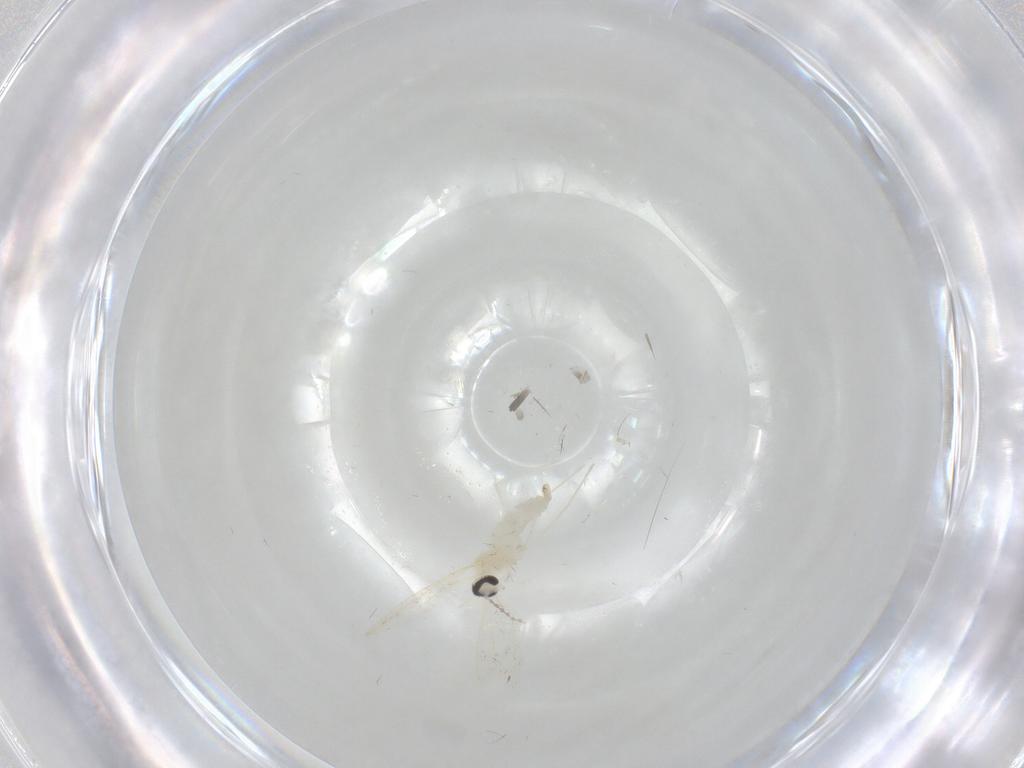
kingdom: Animalia
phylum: Arthropoda
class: Insecta
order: Diptera
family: Cecidomyiidae
